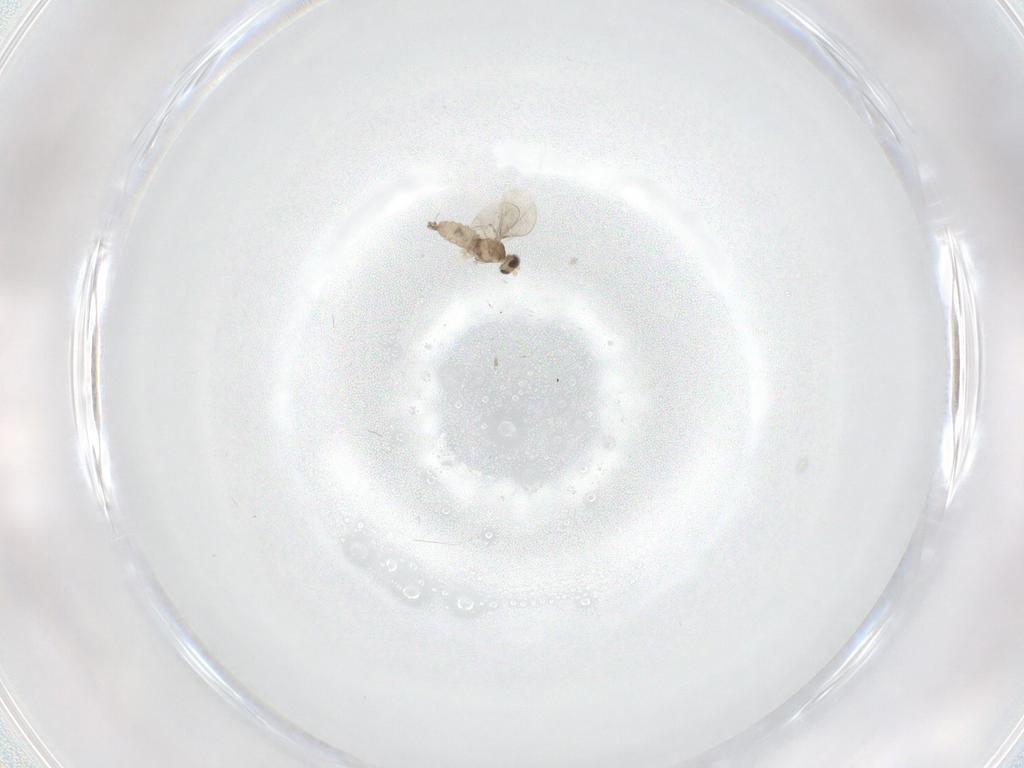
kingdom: Animalia
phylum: Arthropoda
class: Insecta
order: Diptera
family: Cecidomyiidae
